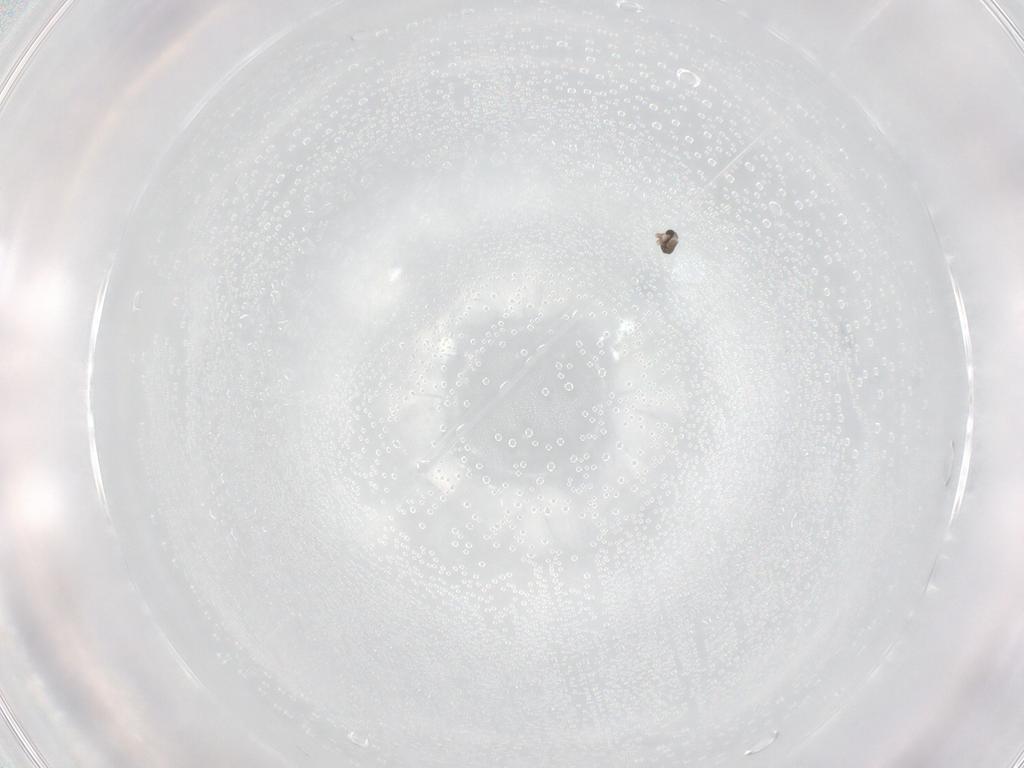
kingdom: Animalia
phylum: Arthropoda
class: Insecta
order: Diptera
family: Cecidomyiidae
